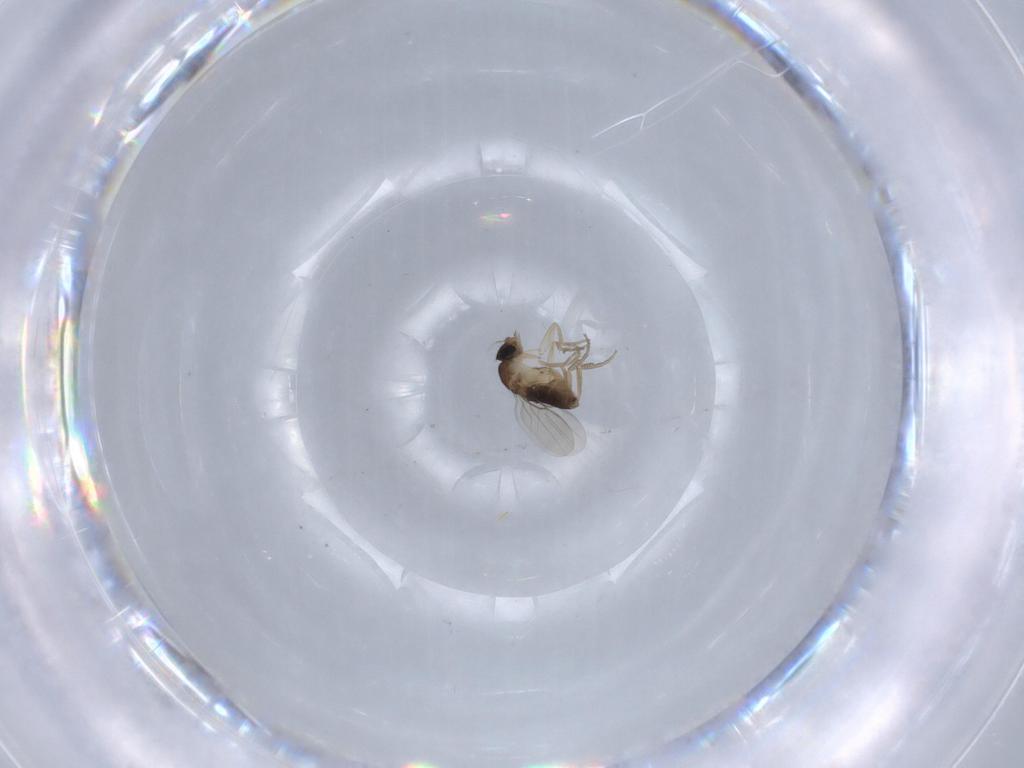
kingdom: Animalia
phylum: Arthropoda
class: Insecta
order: Diptera
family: Phoridae
